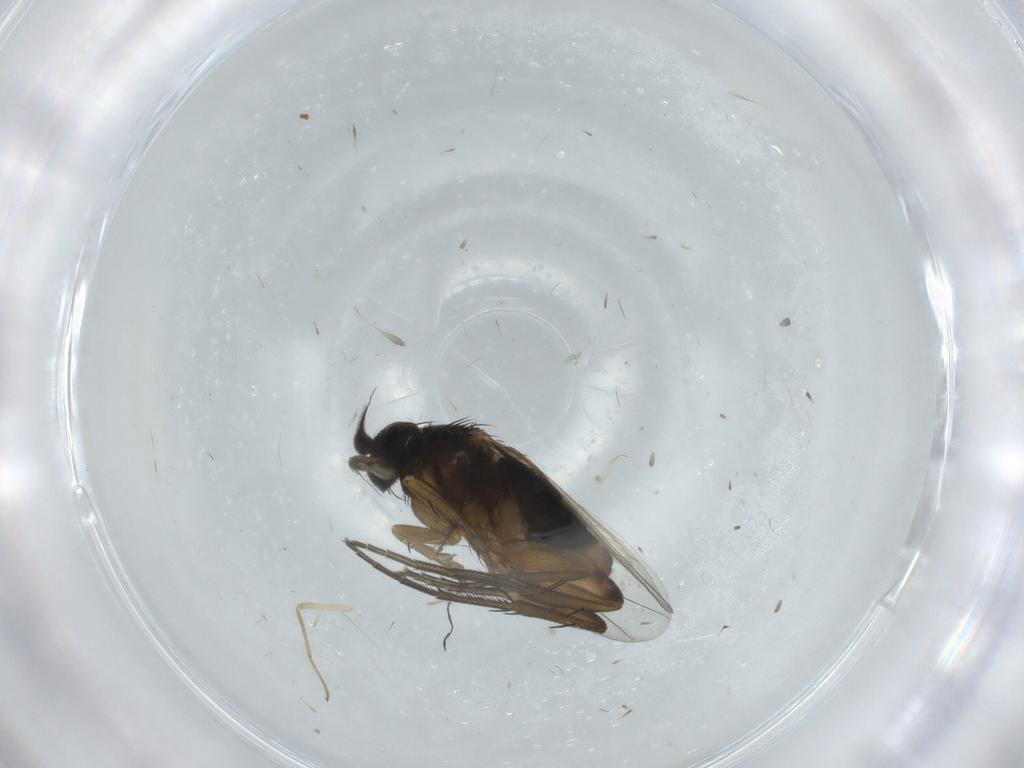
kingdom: Animalia
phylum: Arthropoda
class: Insecta
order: Diptera
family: Phoridae
